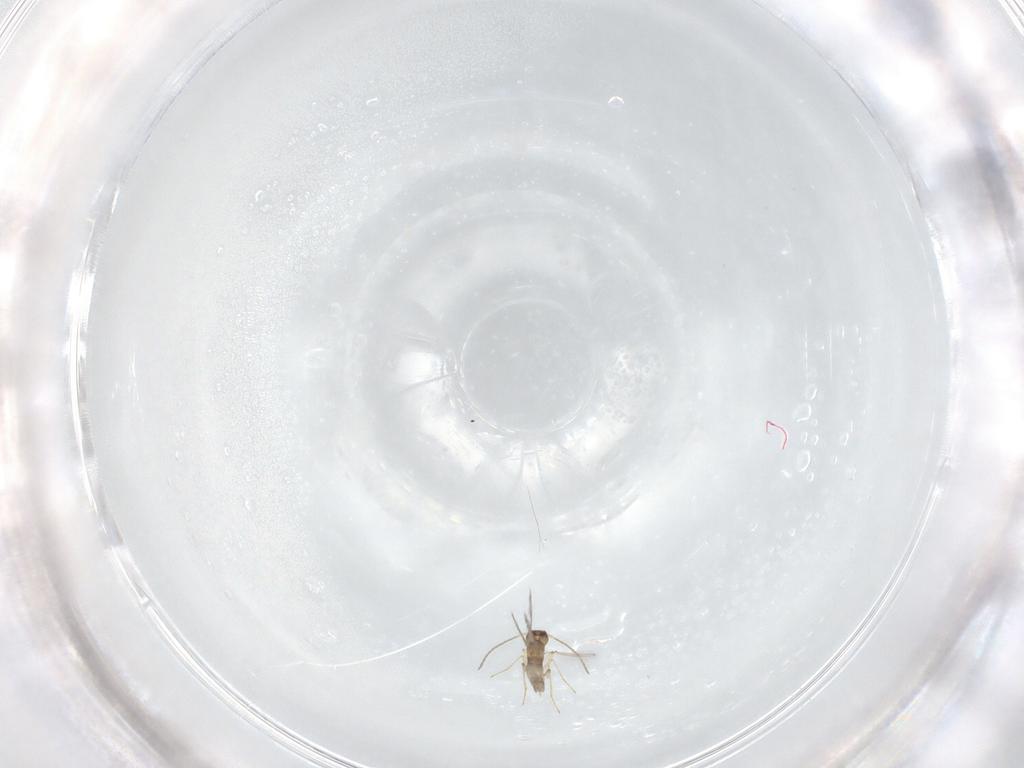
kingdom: Animalia
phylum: Arthropoda
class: Insecta
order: Hymenoptera
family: Mymaridae
